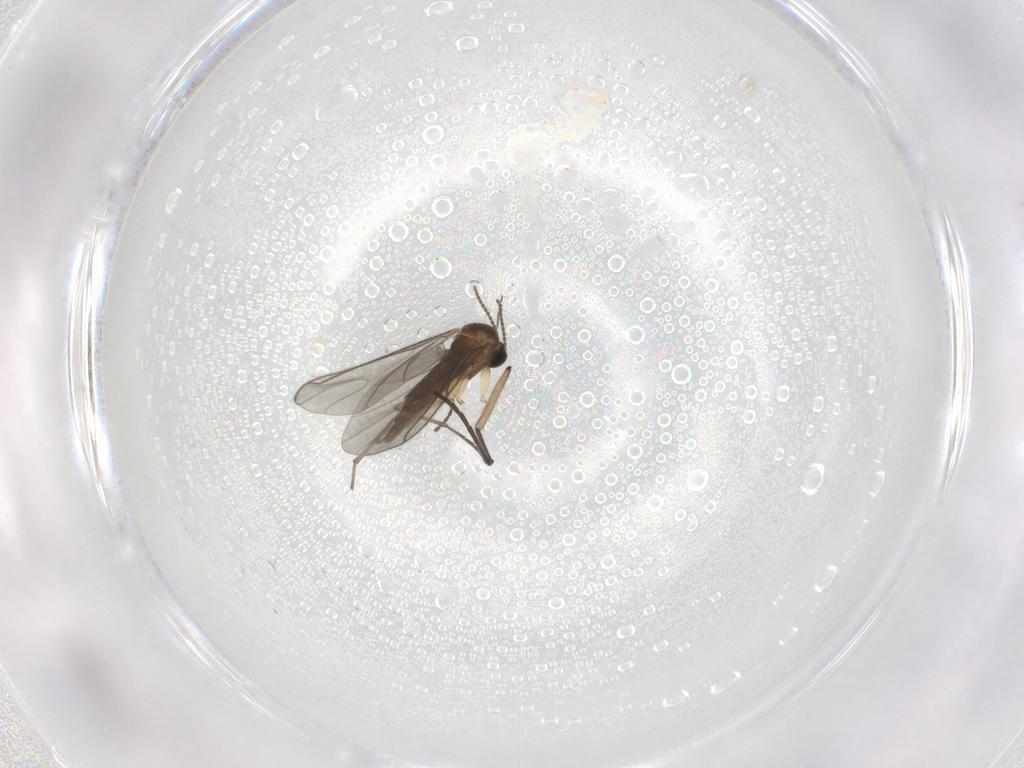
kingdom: Animalia
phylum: Arthropoda
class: Insecta
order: Diptera
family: Sciaridae
